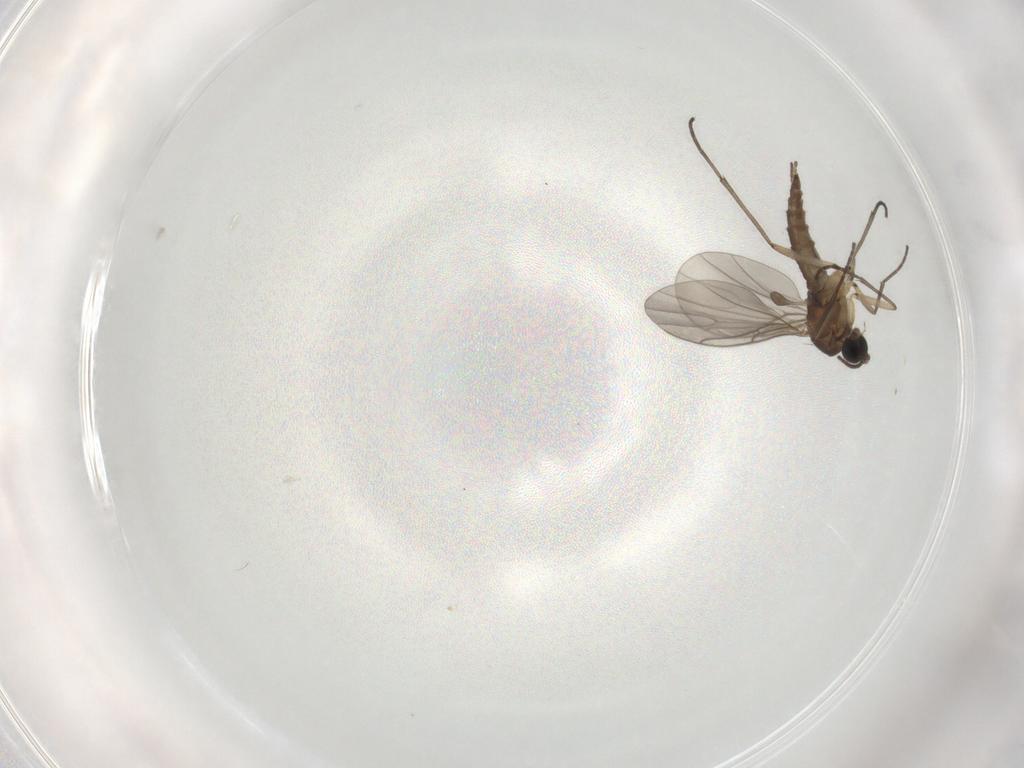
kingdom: Animalia
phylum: Arthropoda
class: Insecta
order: Diptera
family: Sciaridae
